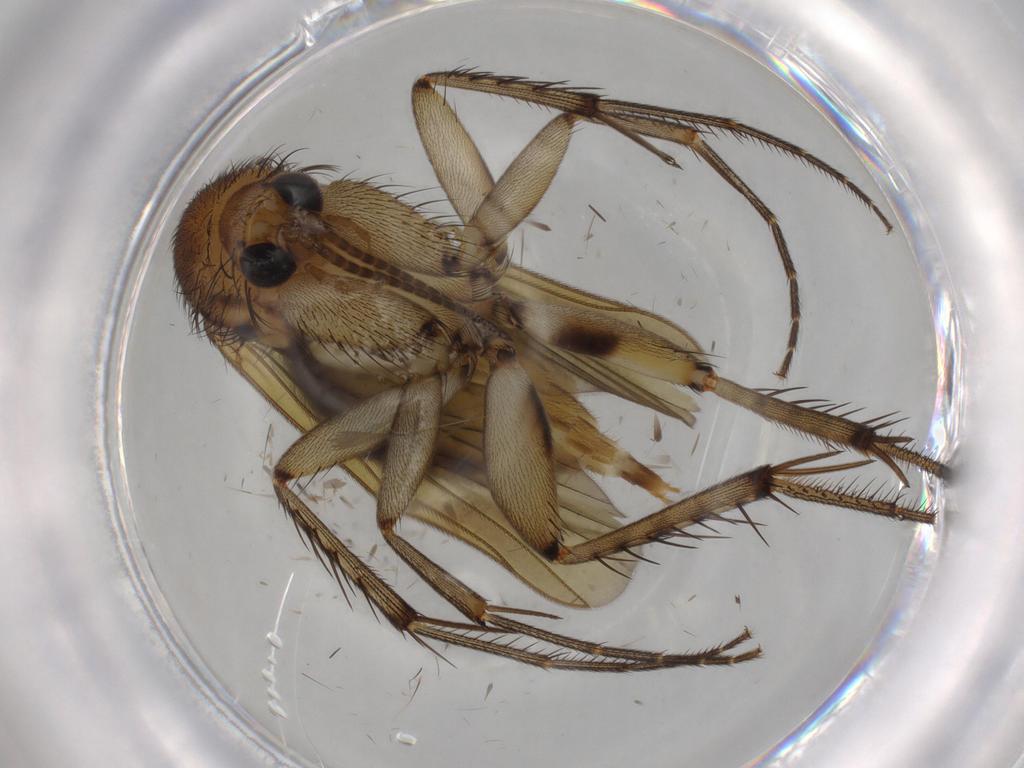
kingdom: Animalia
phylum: Arthropoda
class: Insecta
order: Diptera
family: Mycetophilidae
